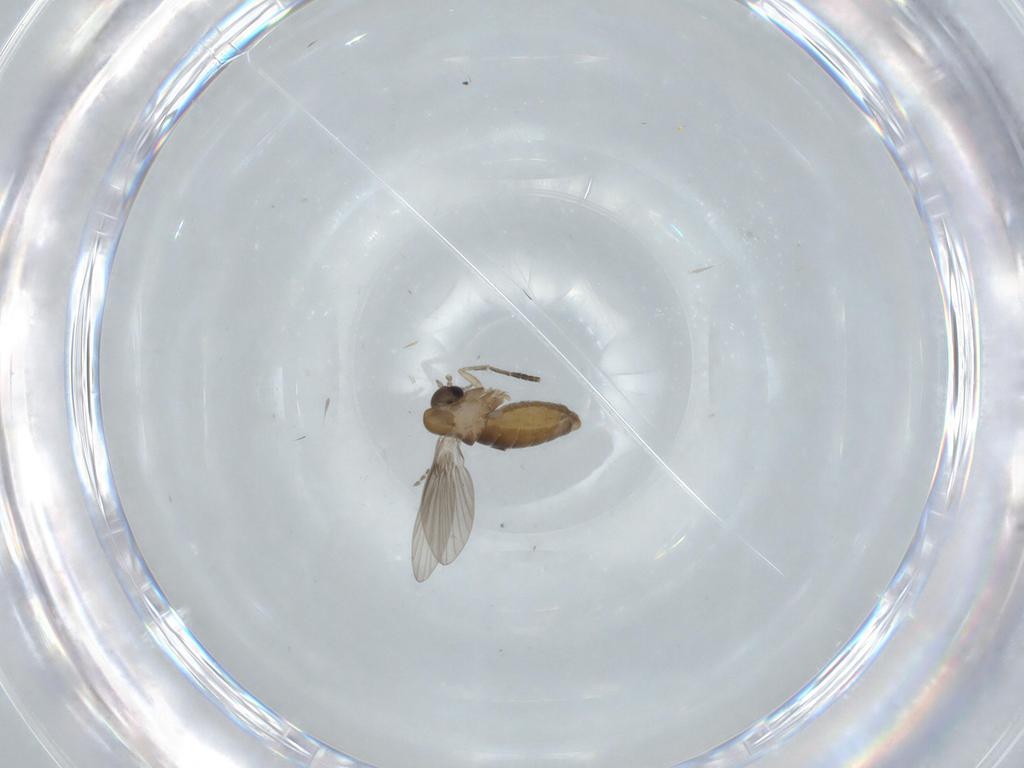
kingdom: Animalia
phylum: Arthropoda
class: Insecta
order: Diptera
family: Psychodidae
